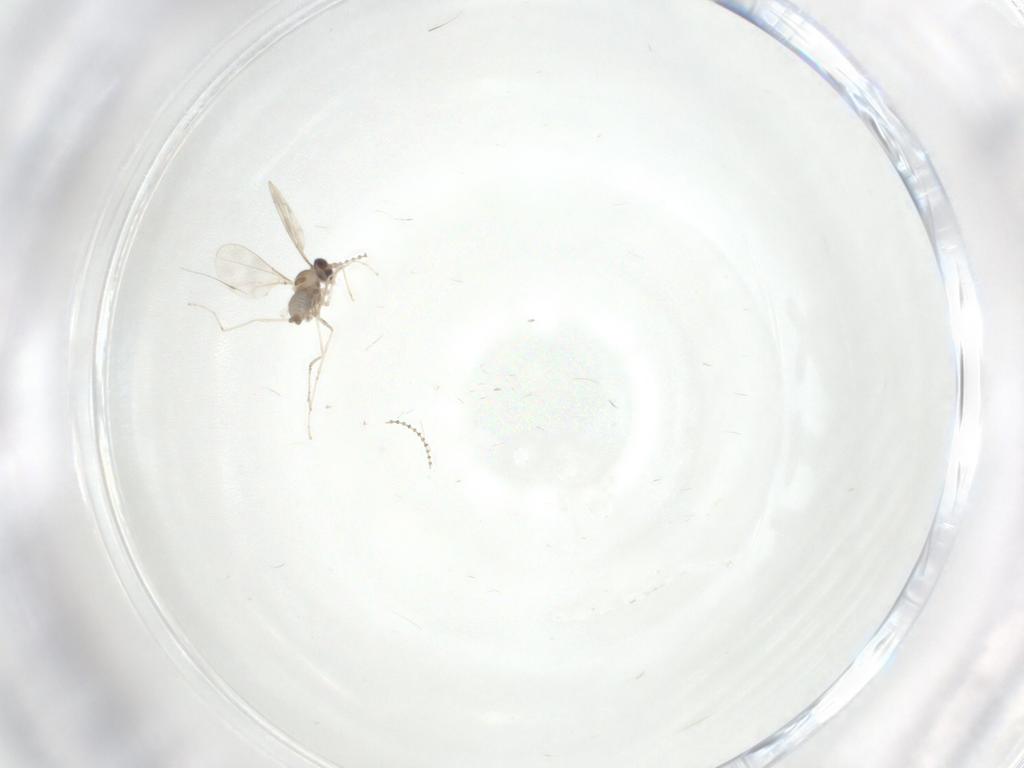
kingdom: Animalia
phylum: Arthropoda
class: Insecta
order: Diptera
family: Cecidomyiidae
